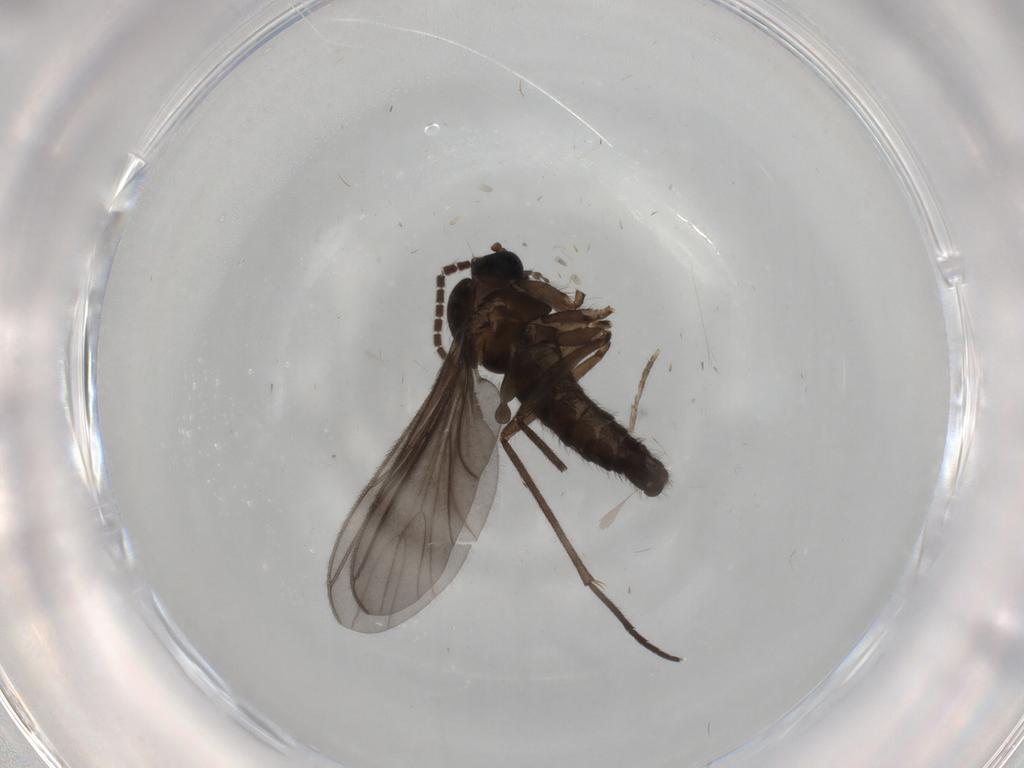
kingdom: Animalia
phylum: Arthropoda
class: Insecta
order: Diptera
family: Sciaridae
